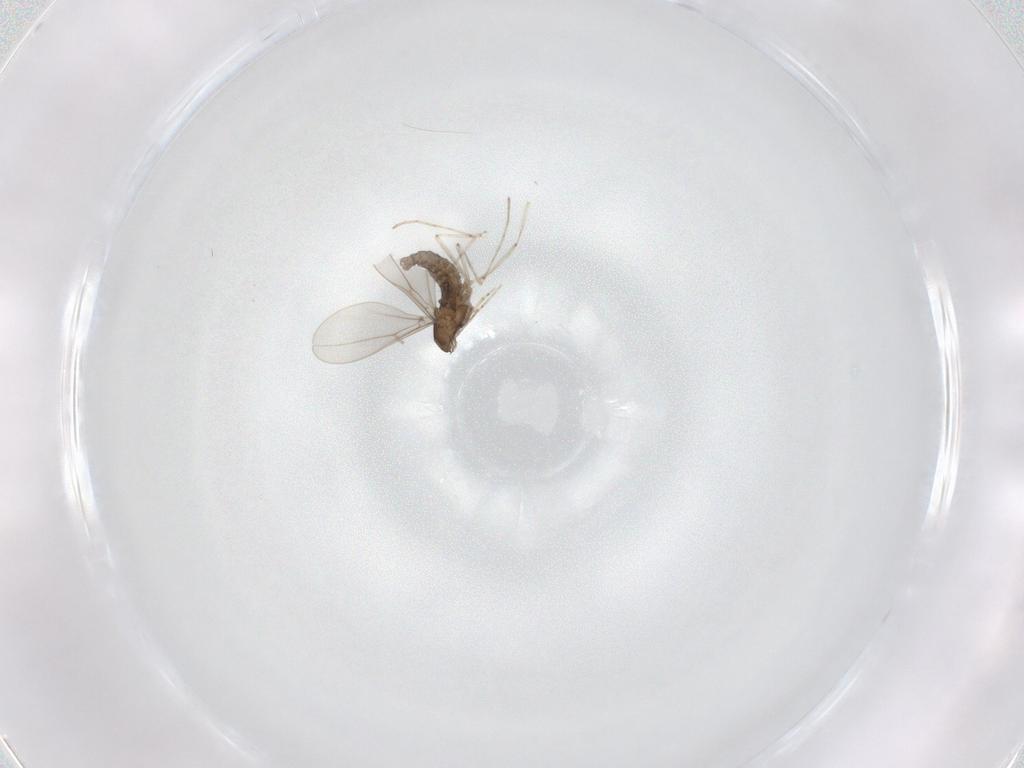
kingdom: Animalia
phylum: Arthropoda
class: Insecta
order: Diptera
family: Cecidomyiidae
